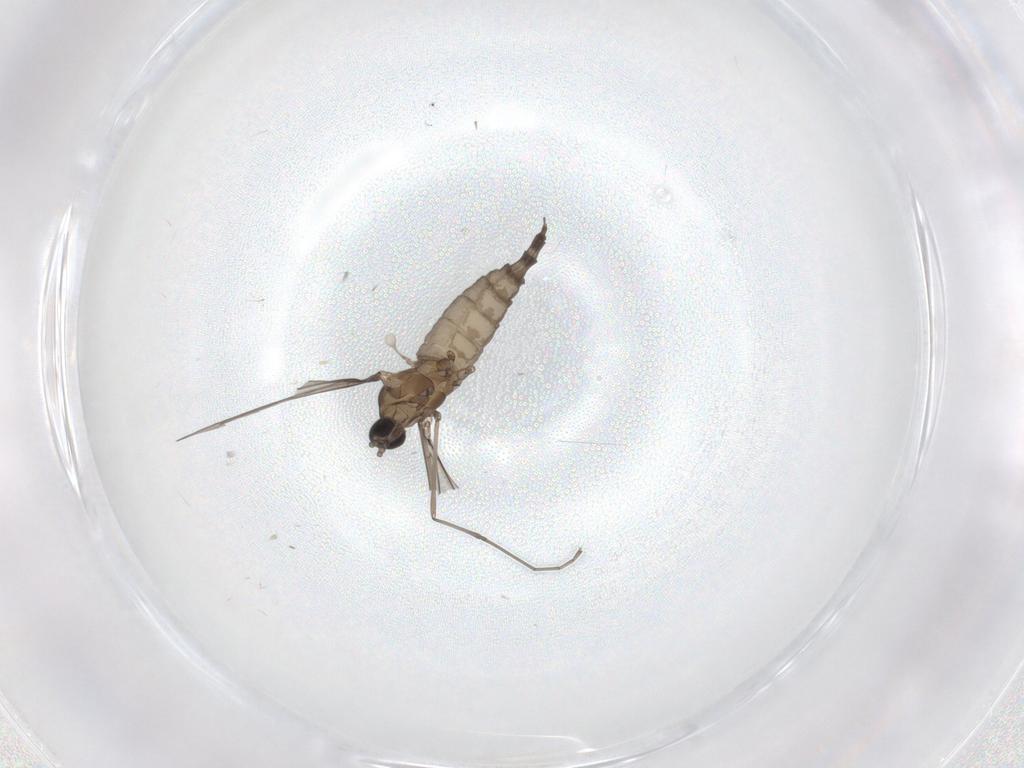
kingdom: Animalia
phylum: Arthropoda
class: Insecta
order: Diptera
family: Cecidomyiidae
